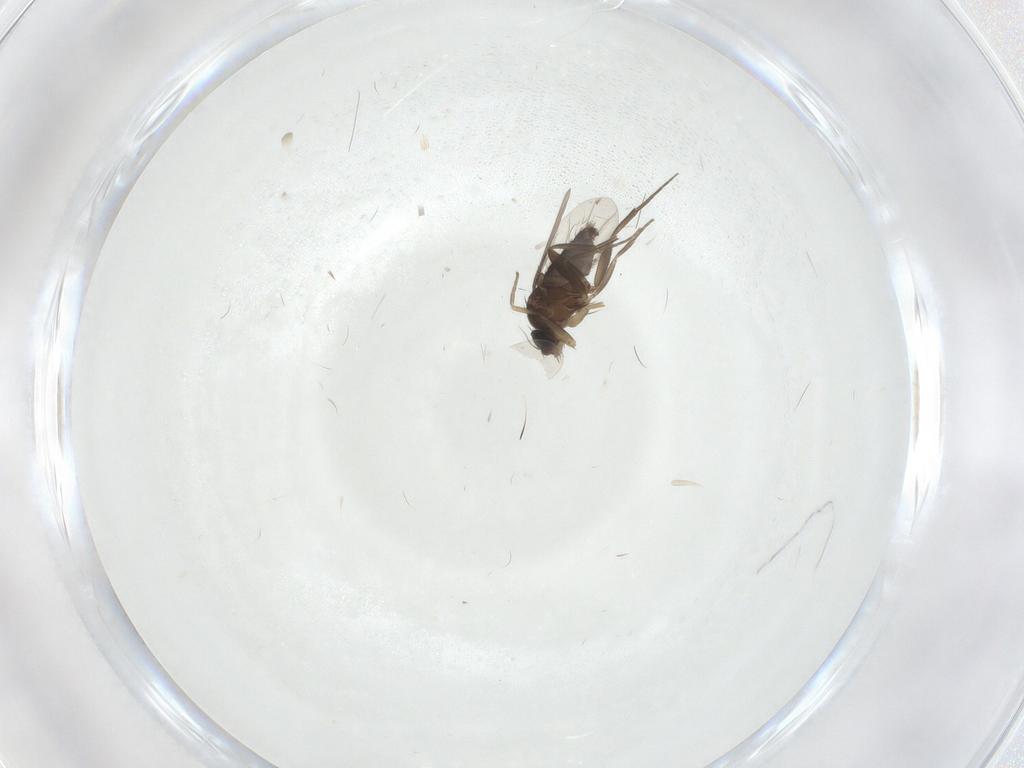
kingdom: Animalia
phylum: Arthropoda
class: Insecta
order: Diptera
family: Phoridae
